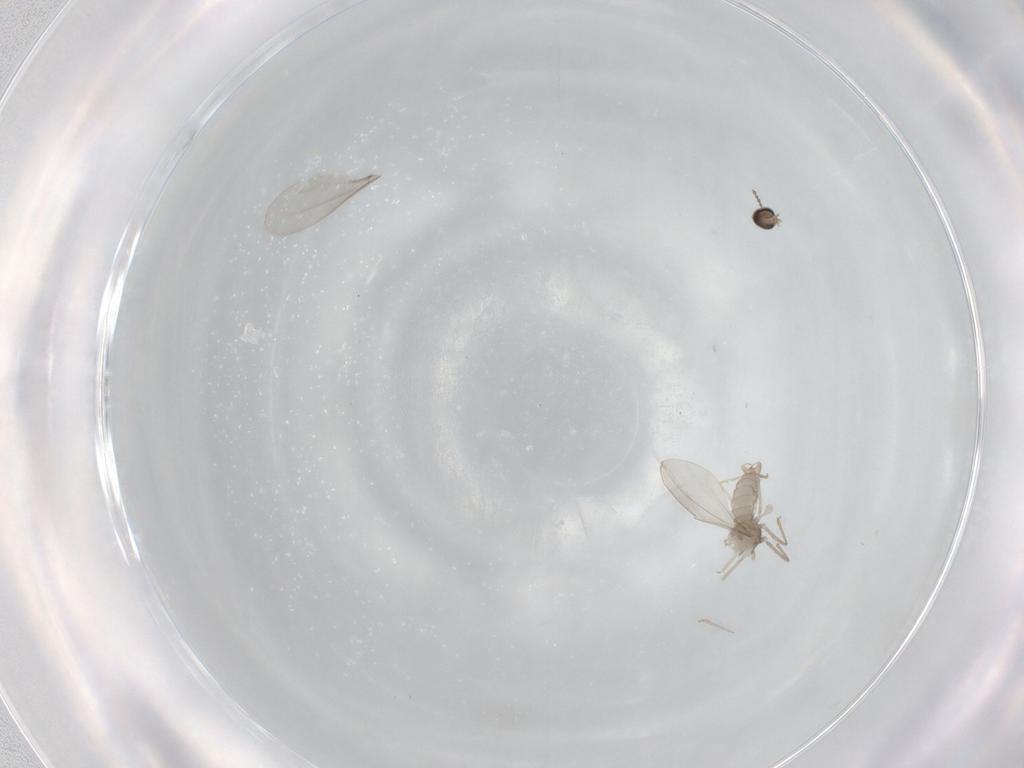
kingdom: Animalia
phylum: Arthropoda
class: Insecta
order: Diptera
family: Cecidomyiidae
